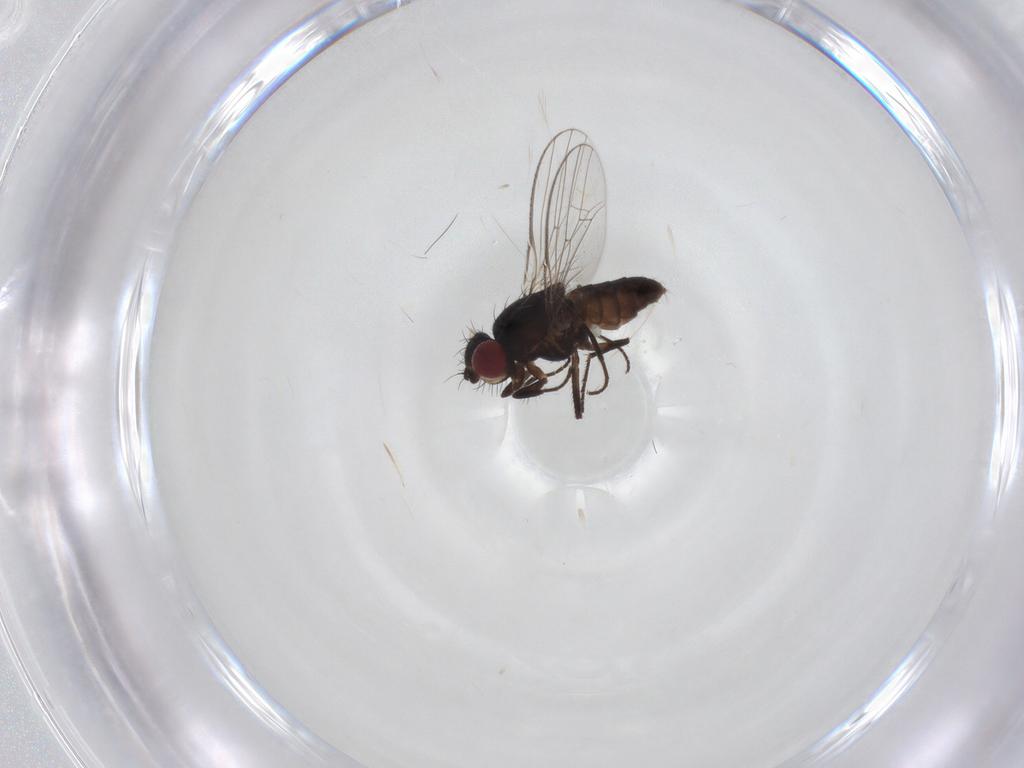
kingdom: Animalia
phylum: Arthropoda
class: Insecta
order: Diptera
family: Carnidae
